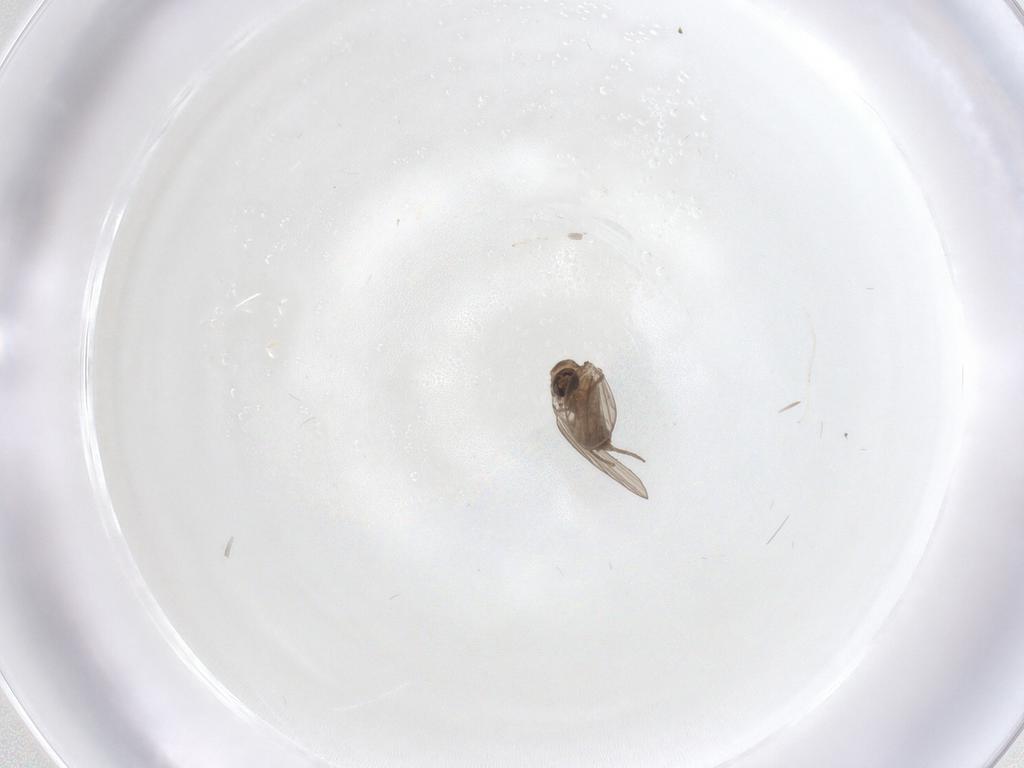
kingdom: Animalia
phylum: Arthropoda
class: Insecta
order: Diptera
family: Psychodidae
